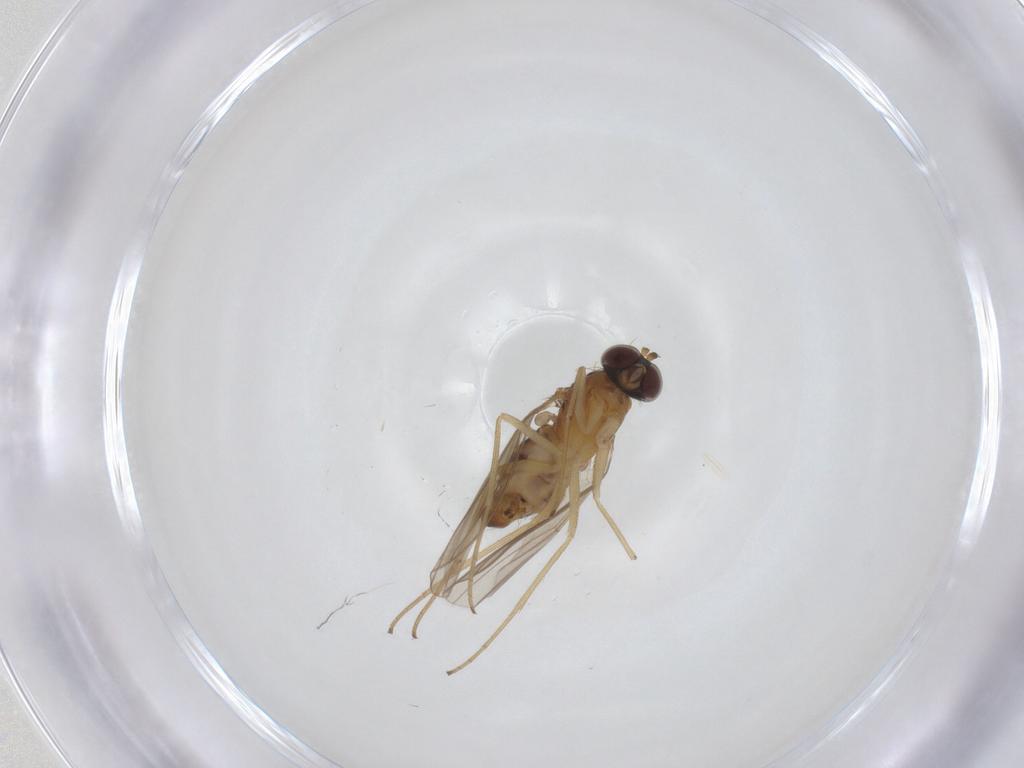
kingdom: Animalia
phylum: Arthropoda
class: Insecta
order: Diptera
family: Dolichopodidae
